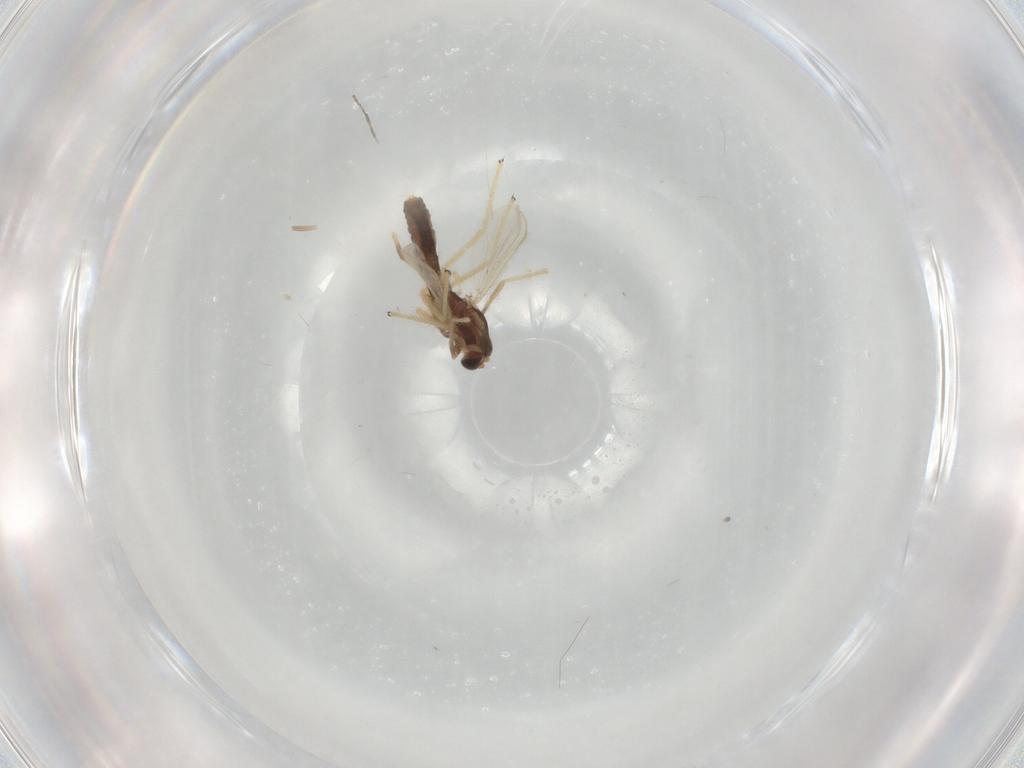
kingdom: Animalia
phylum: Arthropoda
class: Insecta
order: Diptera
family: Chironomidae
